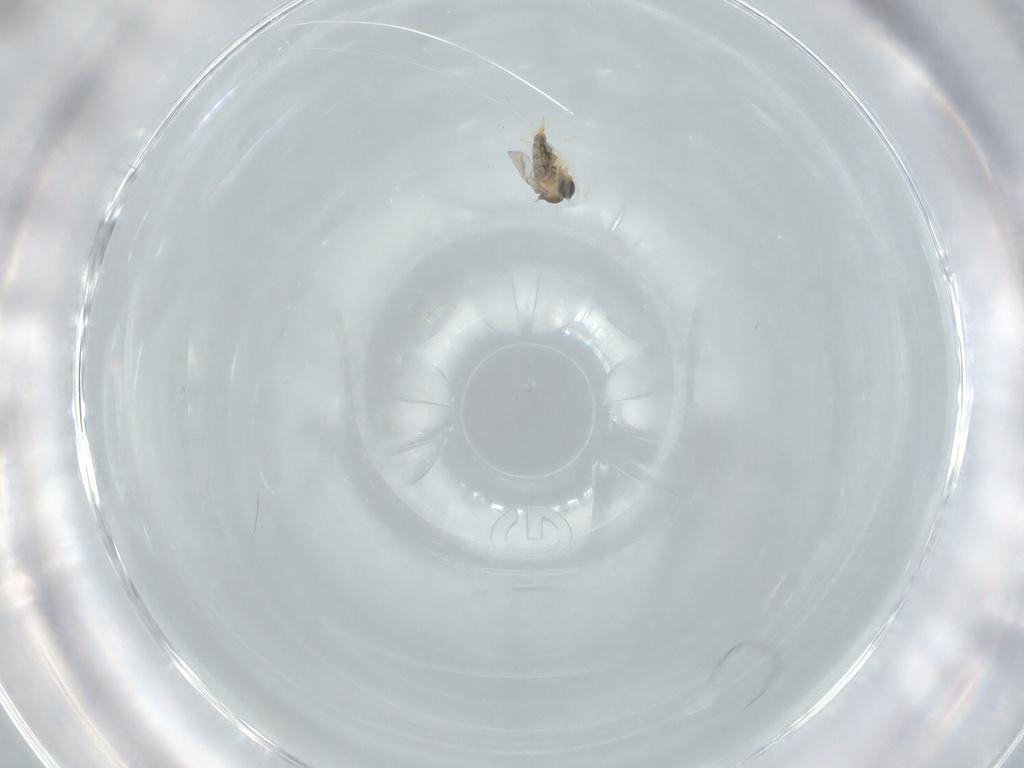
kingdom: Animalia
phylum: Arthropoda
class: Insecta
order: Diptera
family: Cecidomyiidae
